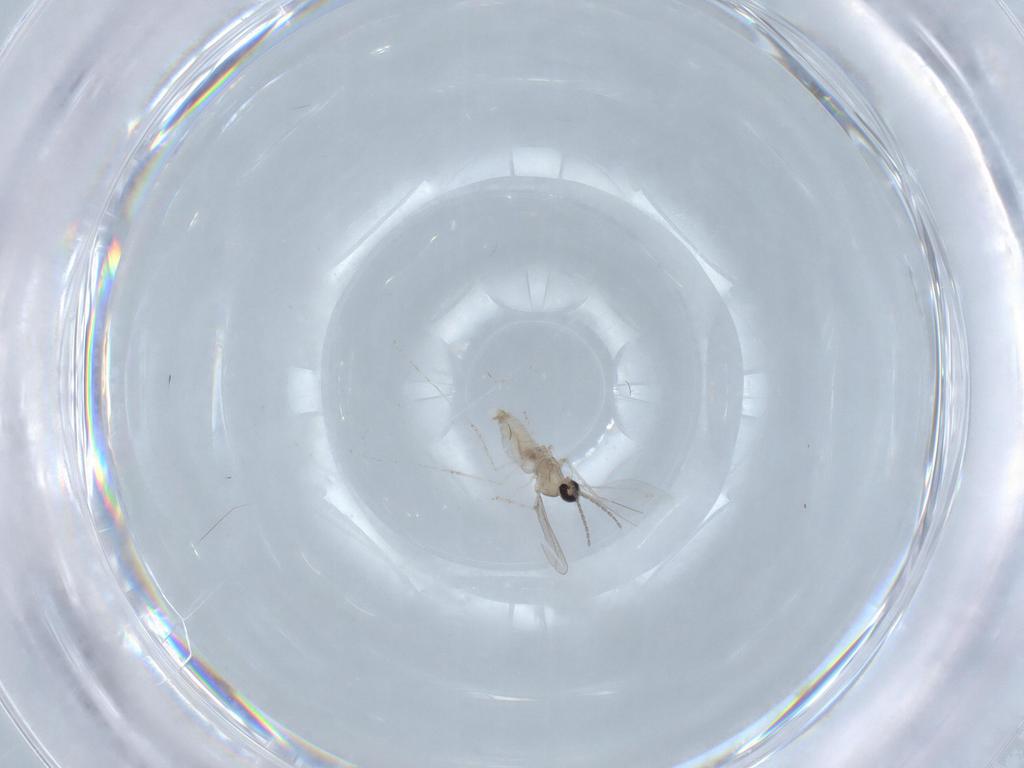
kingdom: Animalia
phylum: Arthropoda
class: Insecta
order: Diptera
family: Cecidomyiidae
